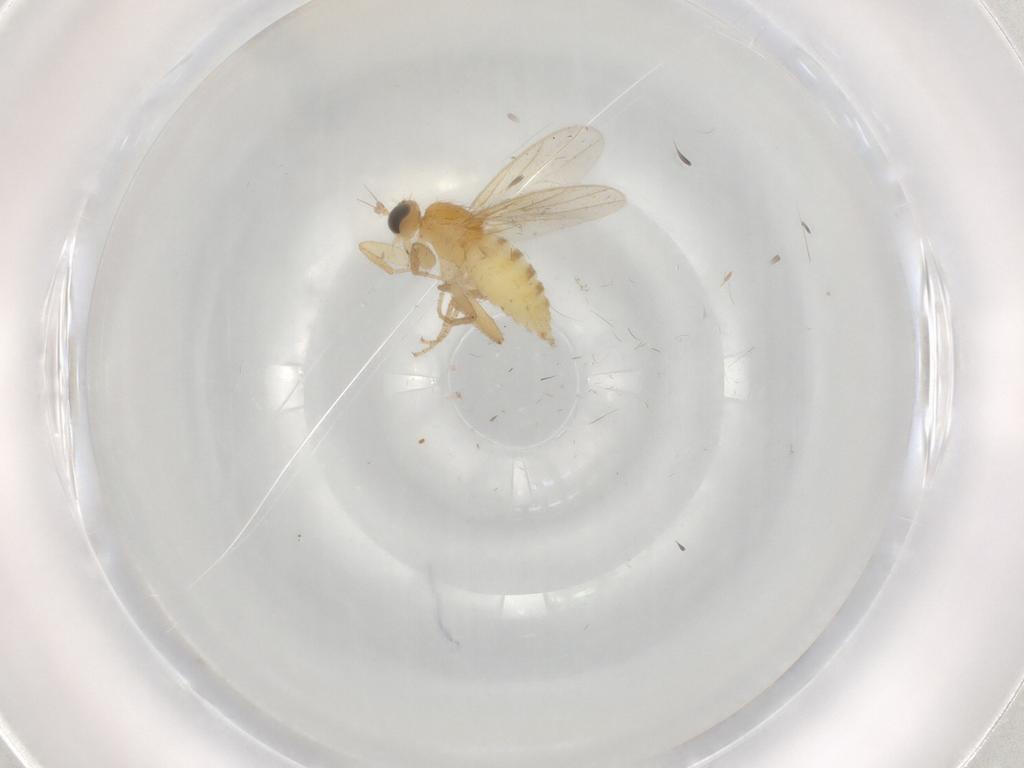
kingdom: Animalia
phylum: Arthropoda
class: Insecta
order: Diptera
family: Hybotidae
